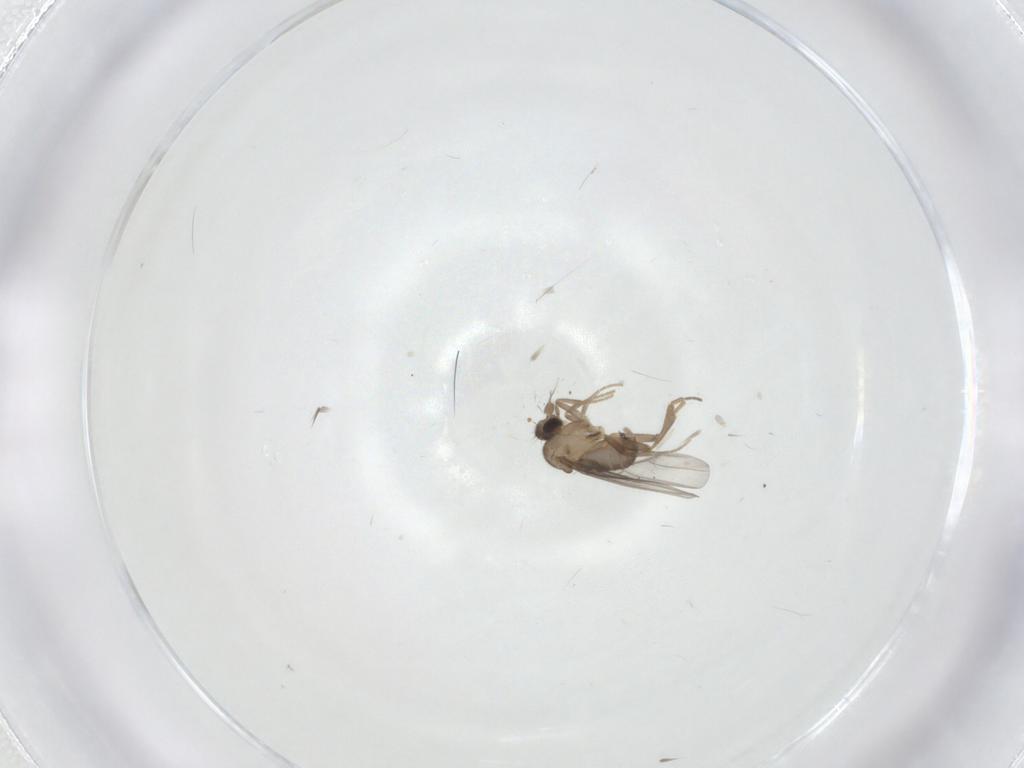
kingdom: Animalia
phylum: Arthropoda
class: Insecta
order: Diptera
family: Cecidomyiidae
